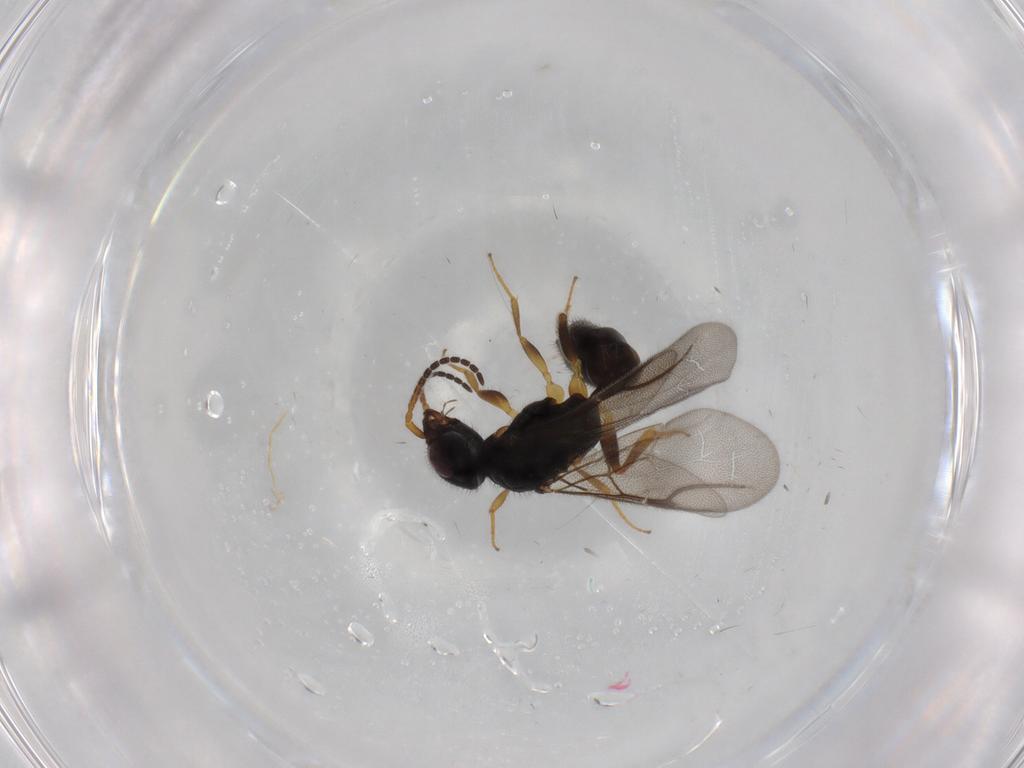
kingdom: Animalia
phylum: Arthropoda
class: Insecta
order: Hymenoptera
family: Bethylidae
